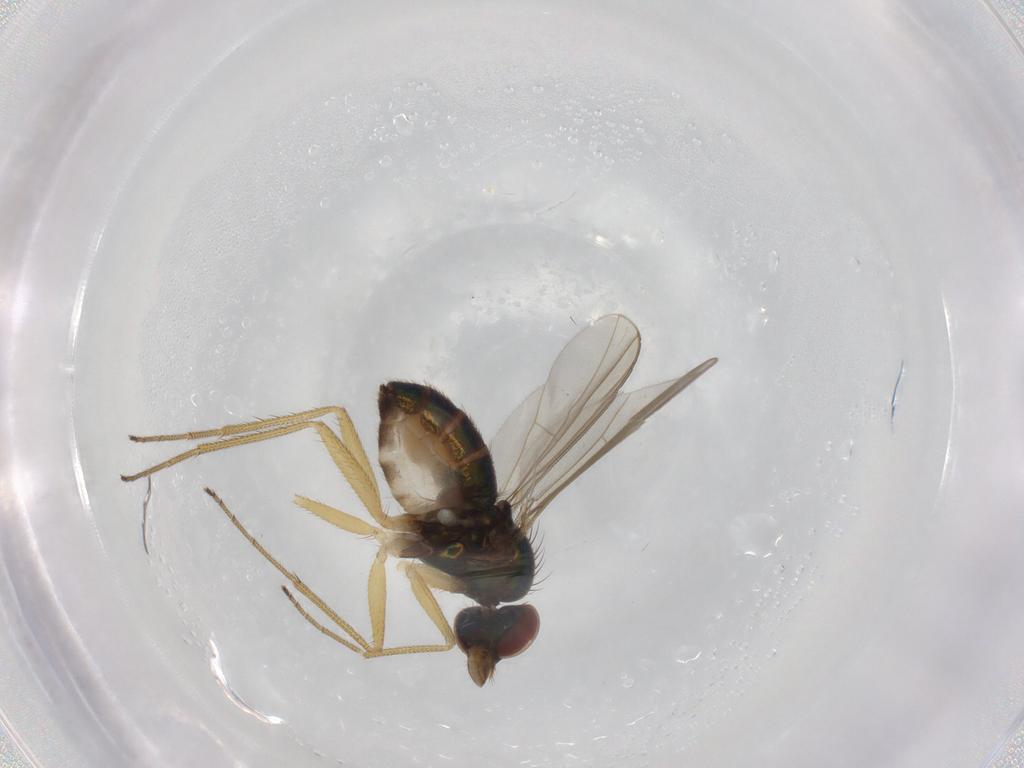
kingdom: Animalia
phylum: Arthropoda
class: Insecta
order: Diptera
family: Dolichopodidae
